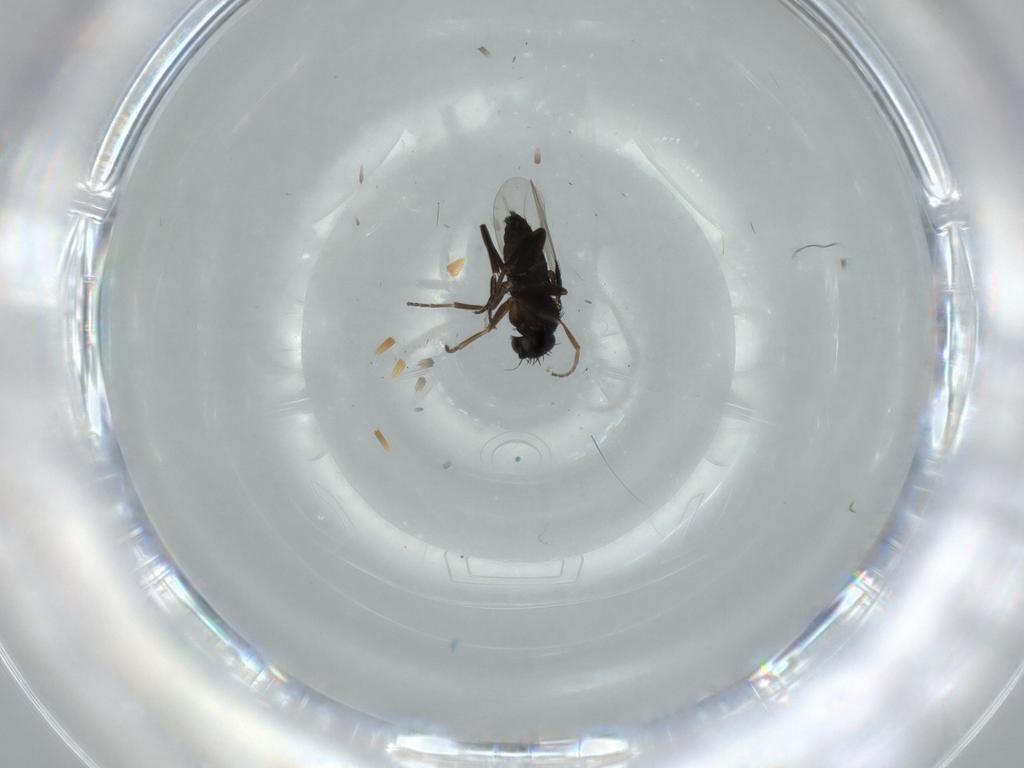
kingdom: Animalia
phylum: Arthropoda
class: Insecta
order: Diptera
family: Phoridae
